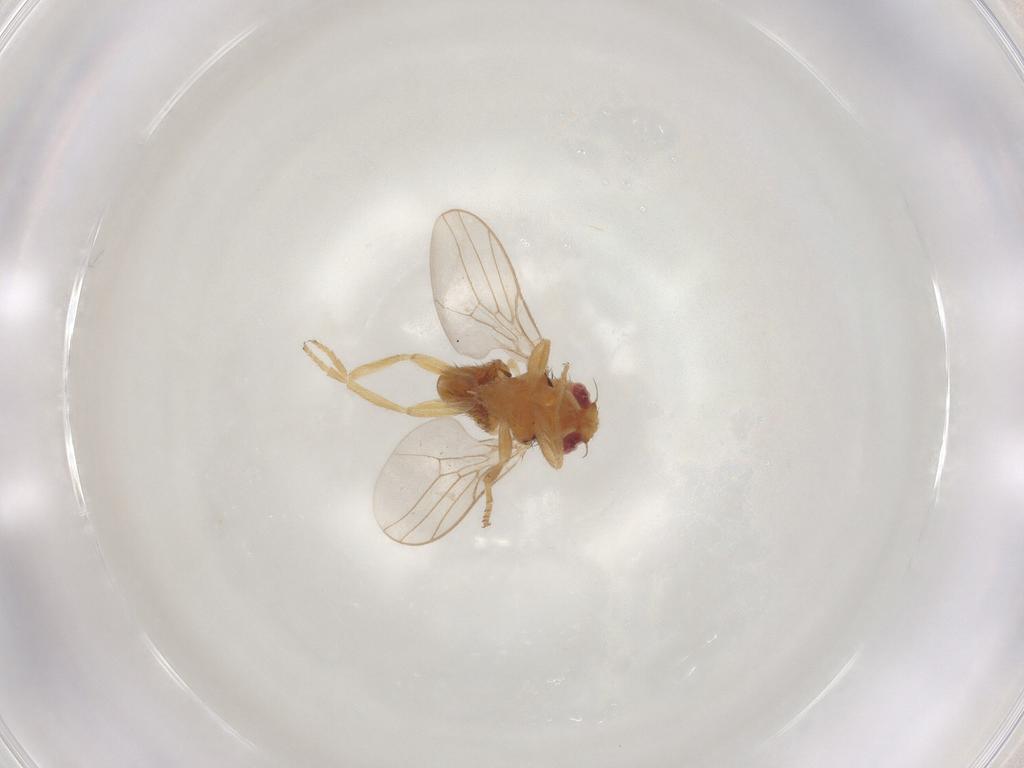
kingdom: Animalia
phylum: Arthropoda
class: Insecta
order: Diptera
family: Chloropidae
